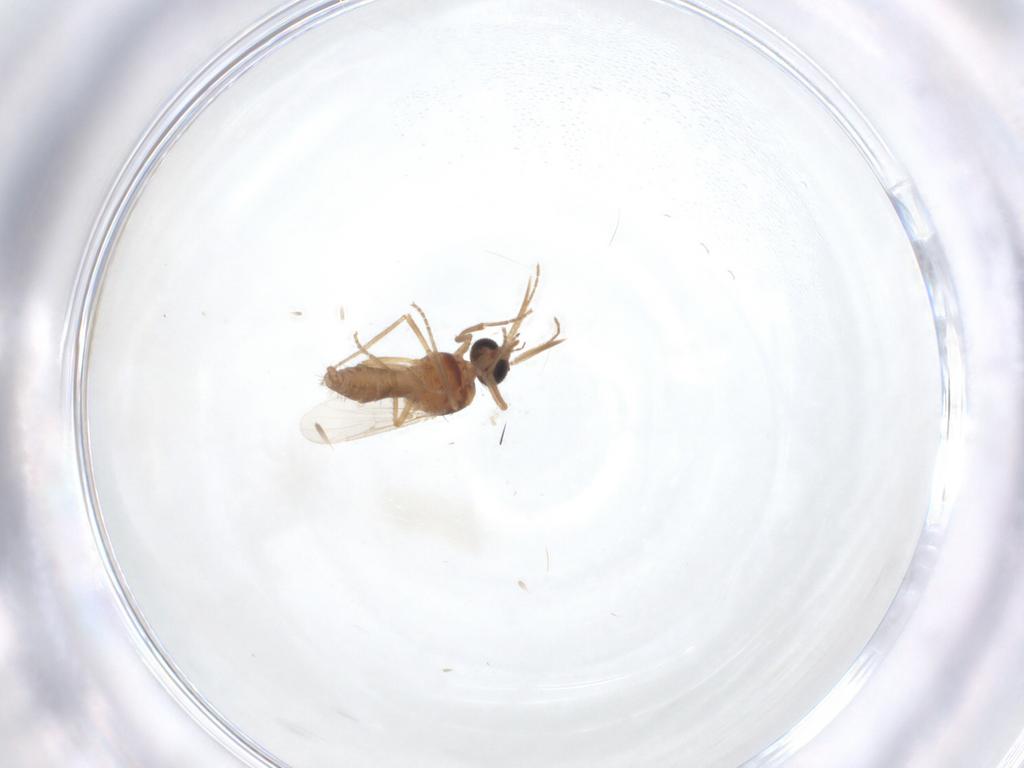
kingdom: Animalia
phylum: Arthropoda
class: Insecta
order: Diptera
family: Ceratopogonidae
